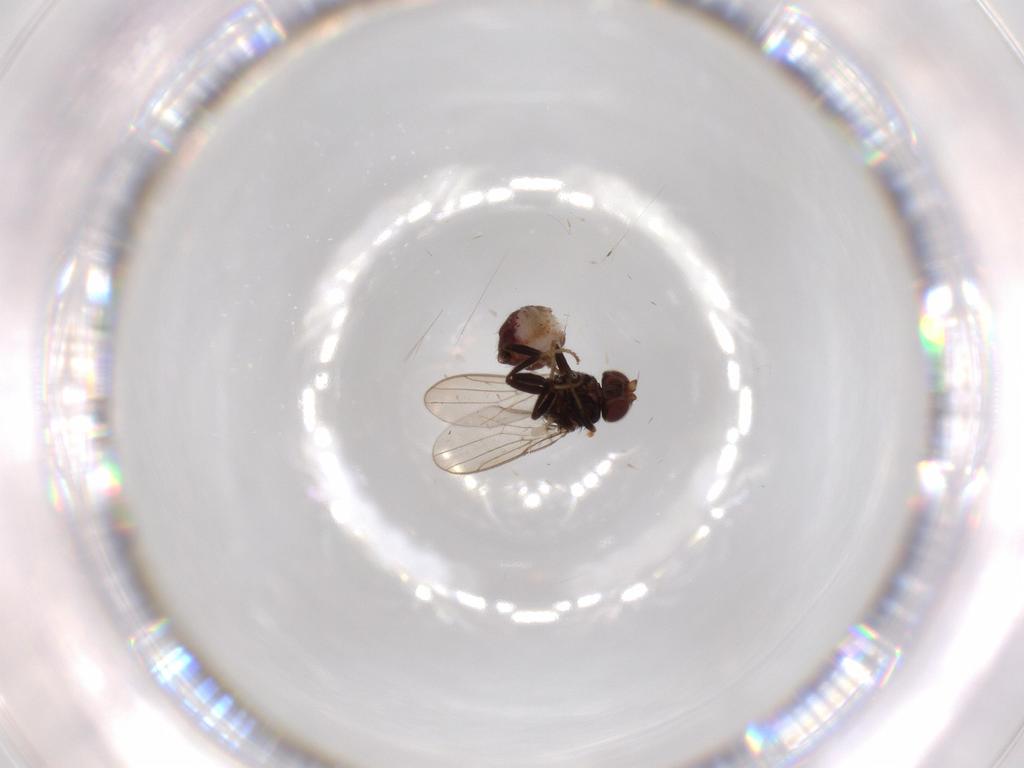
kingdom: Animalia
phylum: Arthropoda
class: Insecta
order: Diptera
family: Chloropidae
